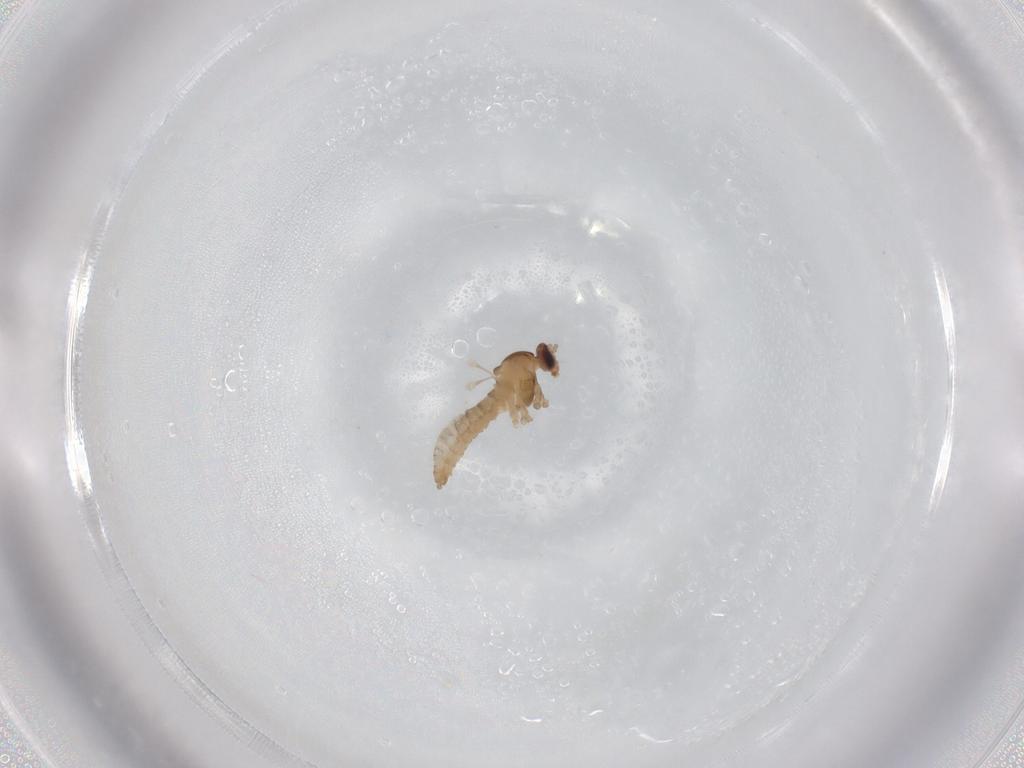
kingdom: Animalia
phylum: Arthropoda
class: Insecta
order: Diptera
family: Cecidomyiidae
